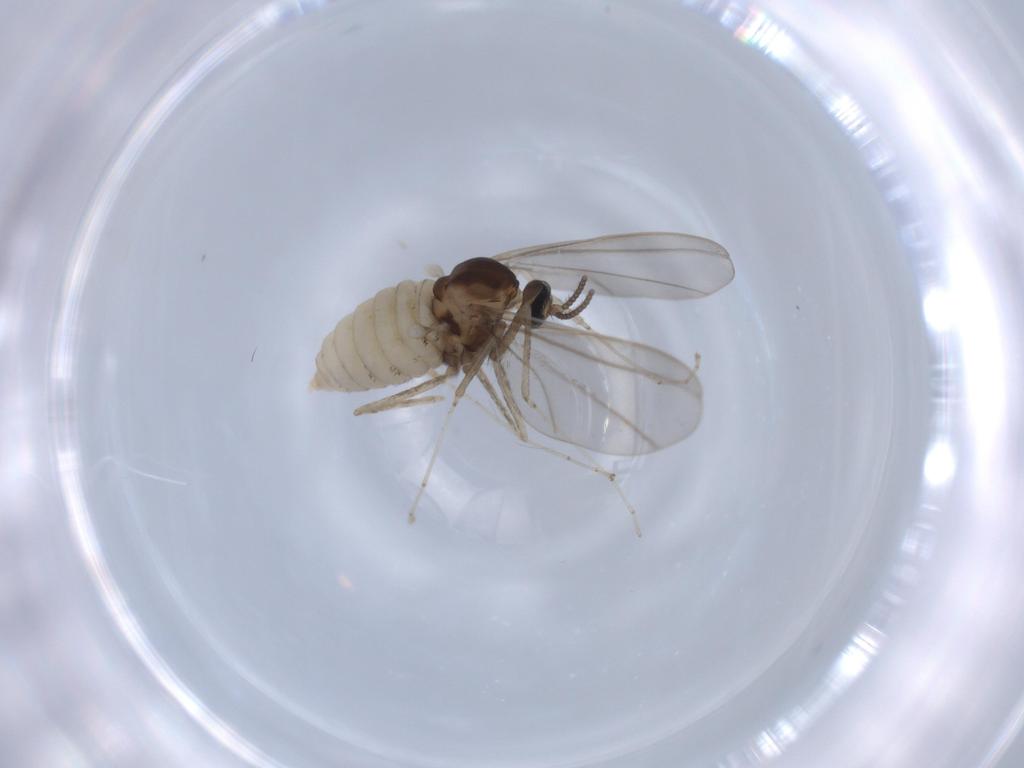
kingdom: Animalia
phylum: Arthropoda
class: Insecta
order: Diptera
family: Cecidomyiidae
